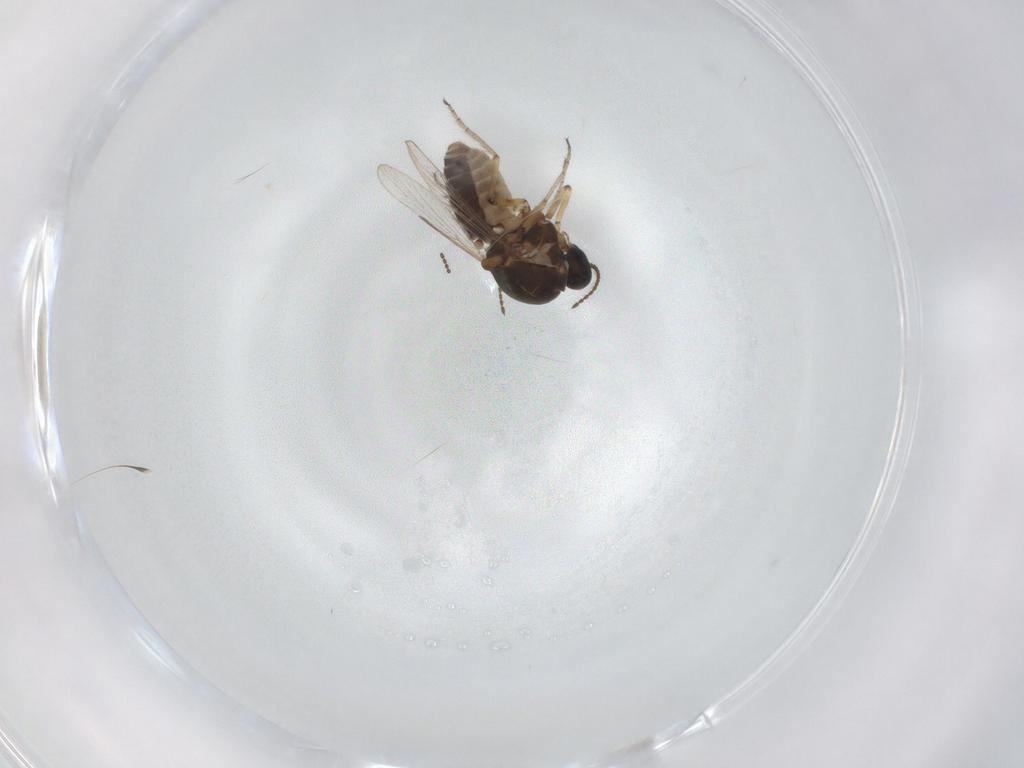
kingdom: Animalia
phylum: Arthropoda
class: Insecta
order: Diptera
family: Ceratopogonidae
